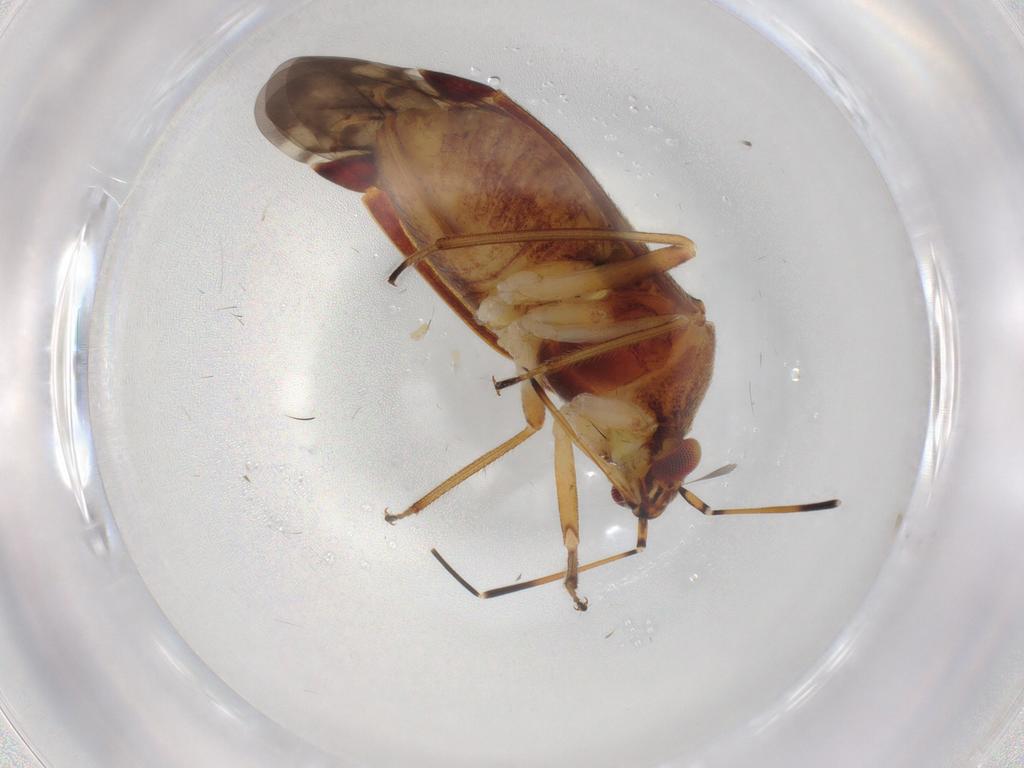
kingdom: Animalia
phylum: Arthropoda
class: Insecta
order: Hemiptera
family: Miridae
